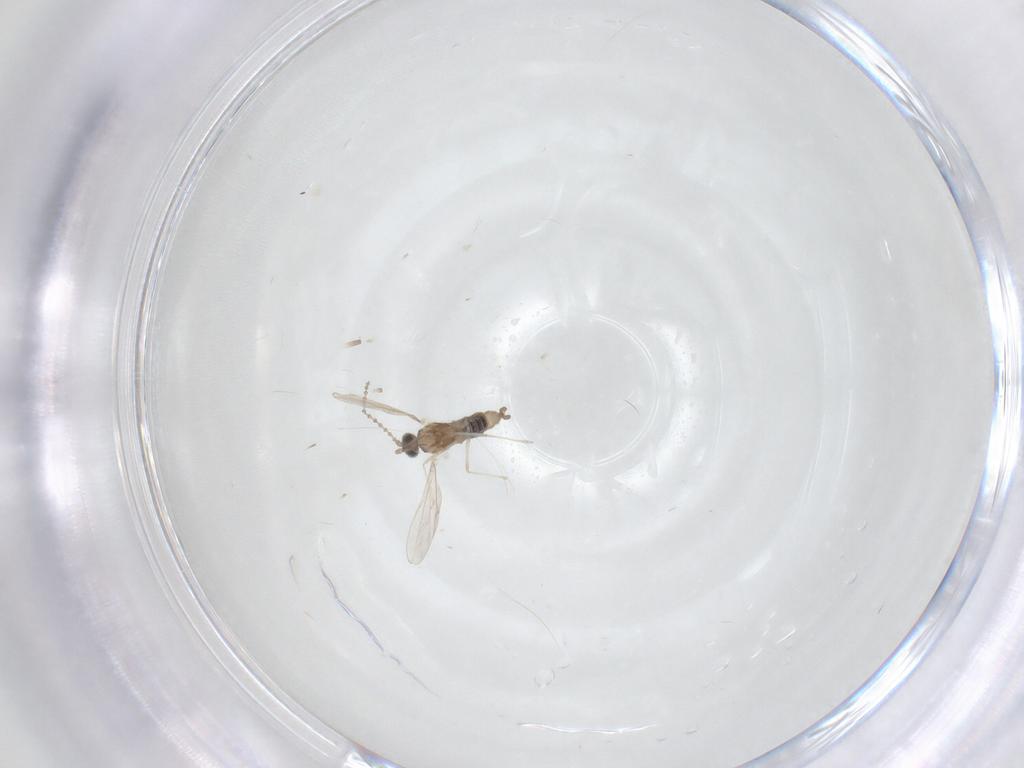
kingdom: Animalia
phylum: Arthropoda
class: Insecta
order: Diptera
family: Cecidomyiidae
